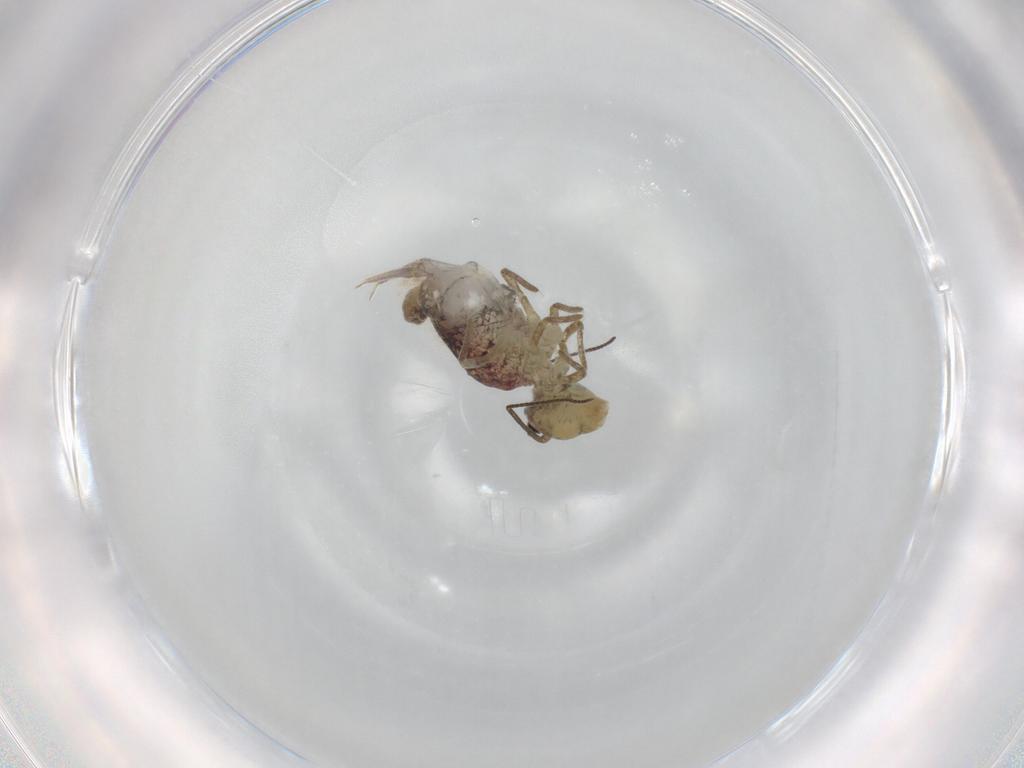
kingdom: Animalia
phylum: Arthropoda
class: Collembola
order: Symphypleona
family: Sminthuridae
